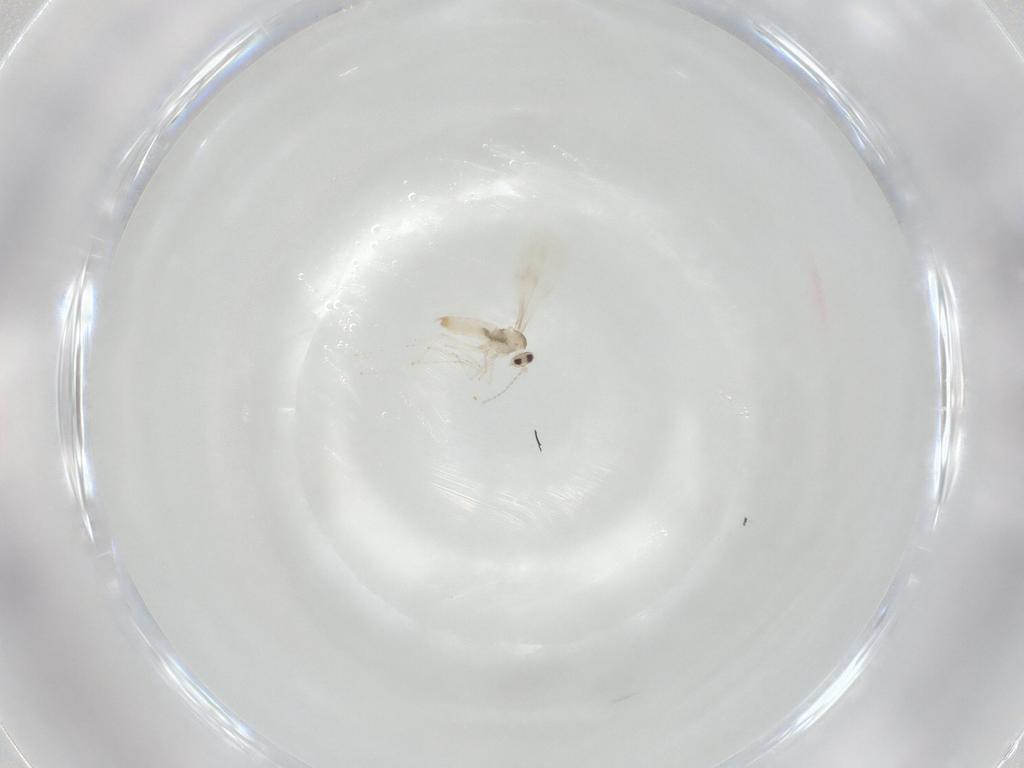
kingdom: Animalia
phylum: Arthropoda
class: Insecta
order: Diptera
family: Cecidomyiidae
